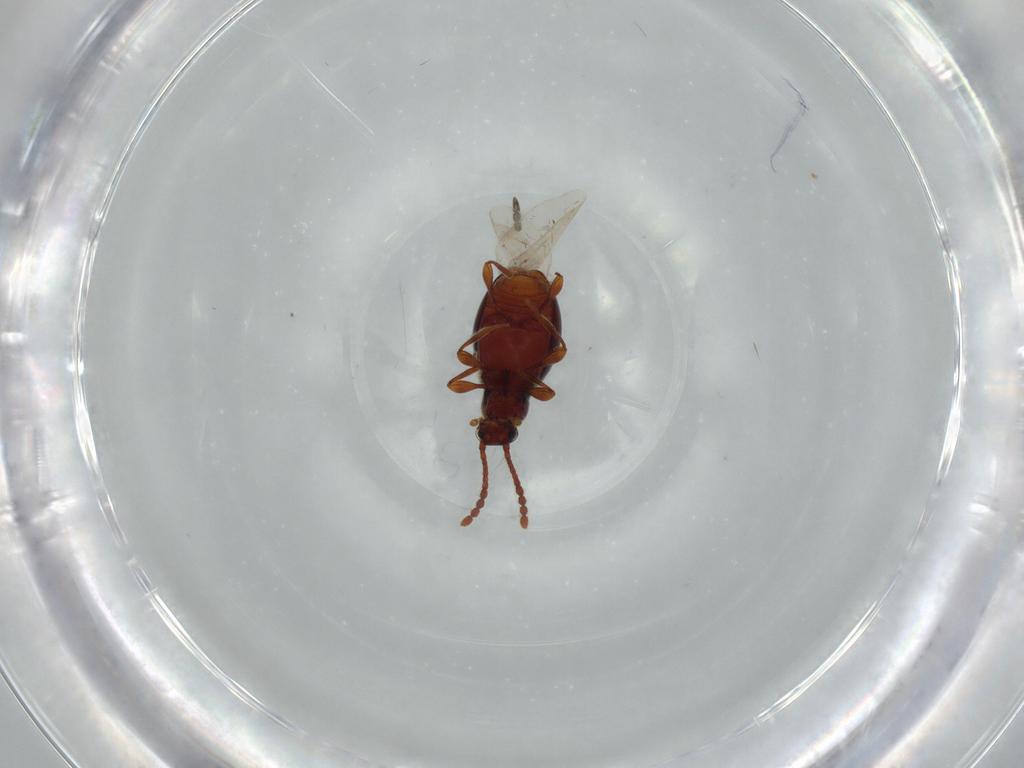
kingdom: Animalia
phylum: Arthropoda
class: Insecta
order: Coleoptera
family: Staphylinidae
